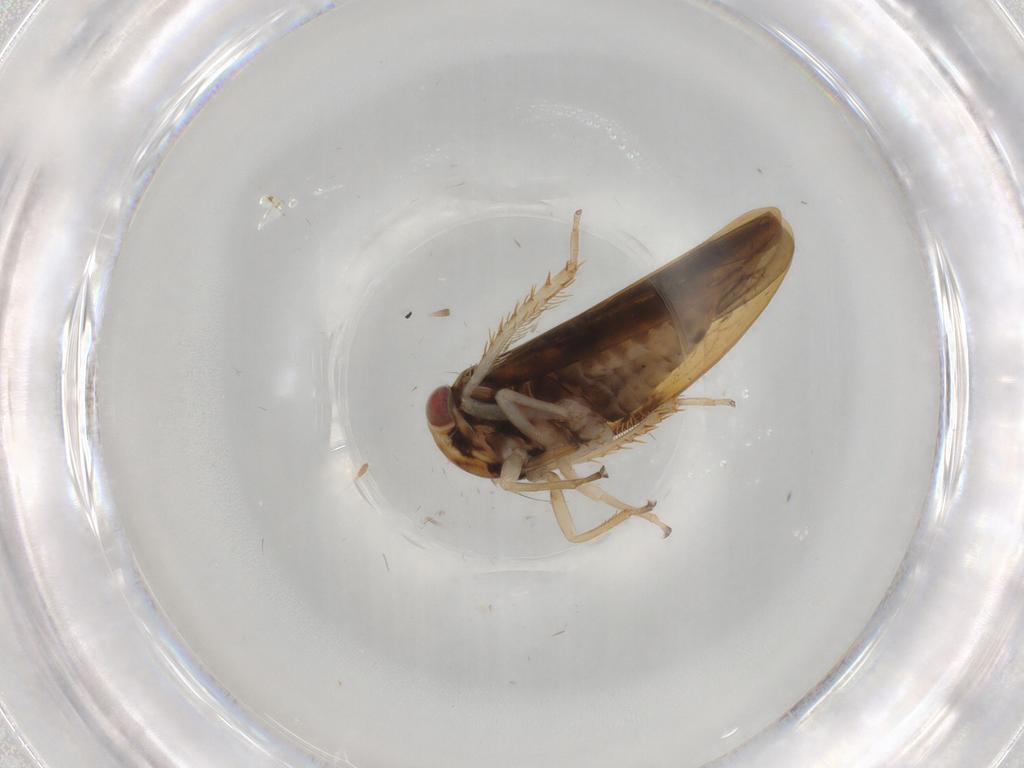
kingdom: Animalia
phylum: Arthropoda
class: Insecta
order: Hemiptera
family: Cicadellidae
